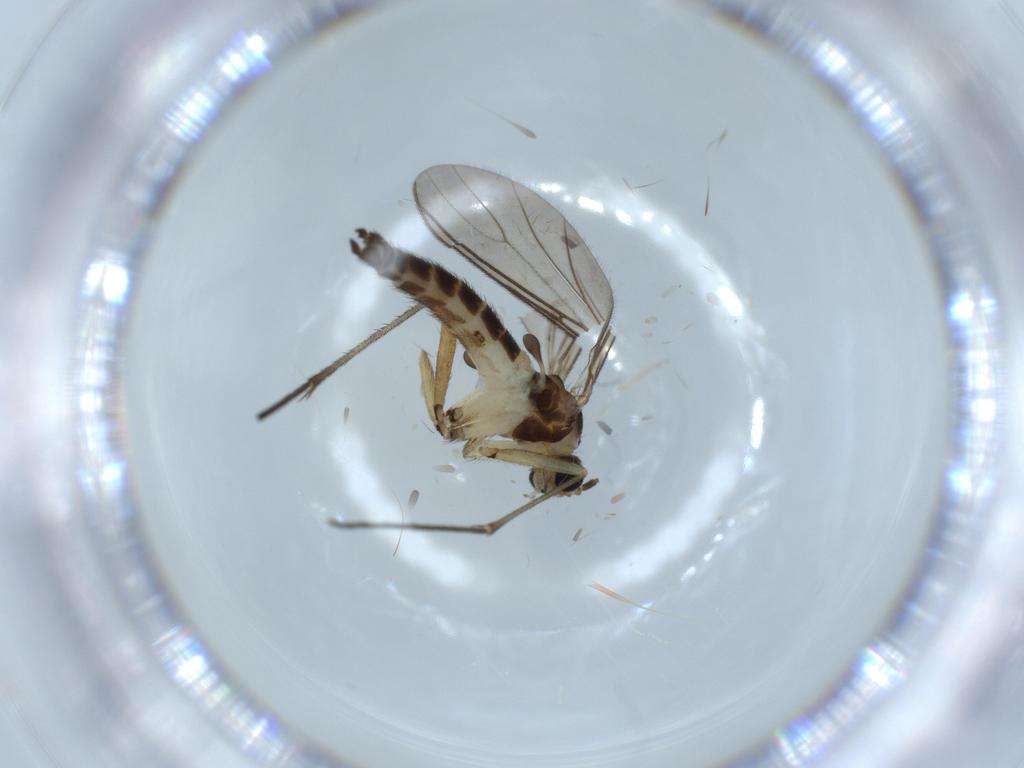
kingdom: Animalia
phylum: Arthropoda
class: Insecta
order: Diptera
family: Sciaridae
